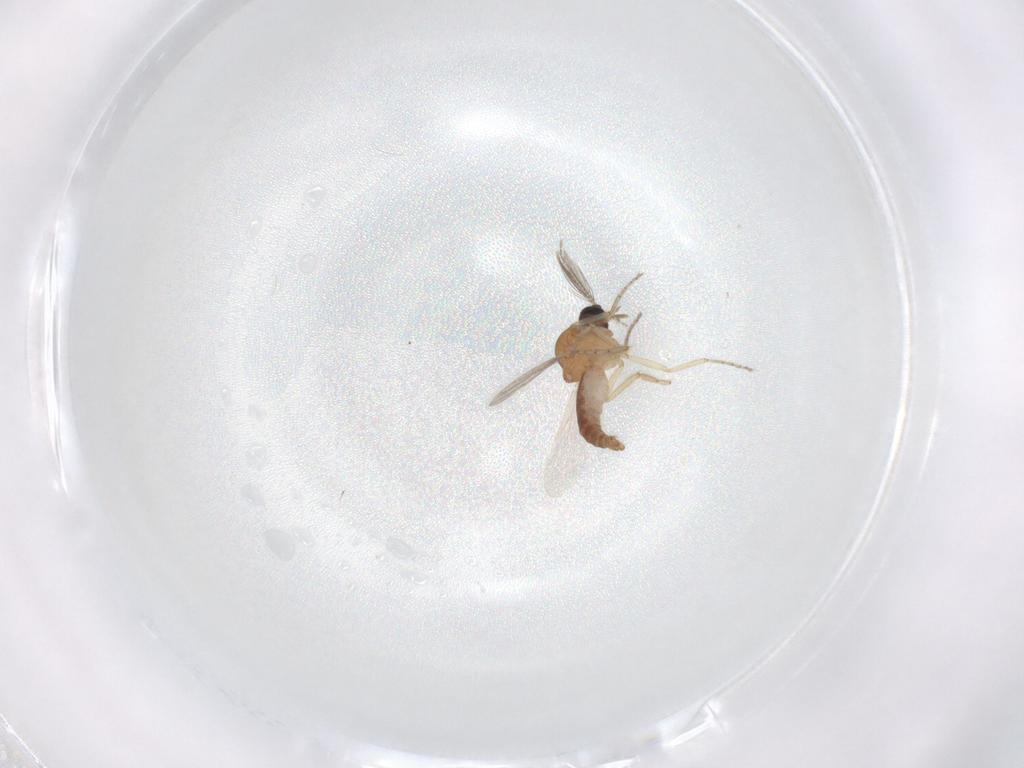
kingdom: Animalia
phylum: Arthropoda
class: Insecta
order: Diptera
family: Ceratopogonidae
